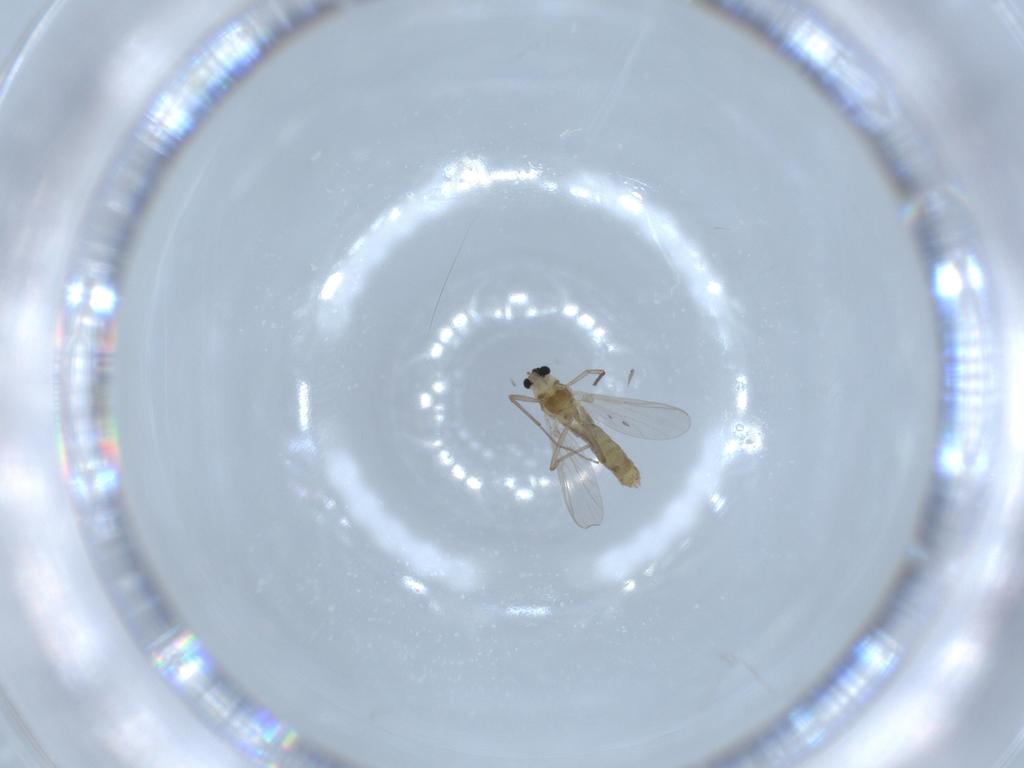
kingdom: Animalia
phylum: Arthropoda
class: Insecta
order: Diptera
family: Chironomidae
